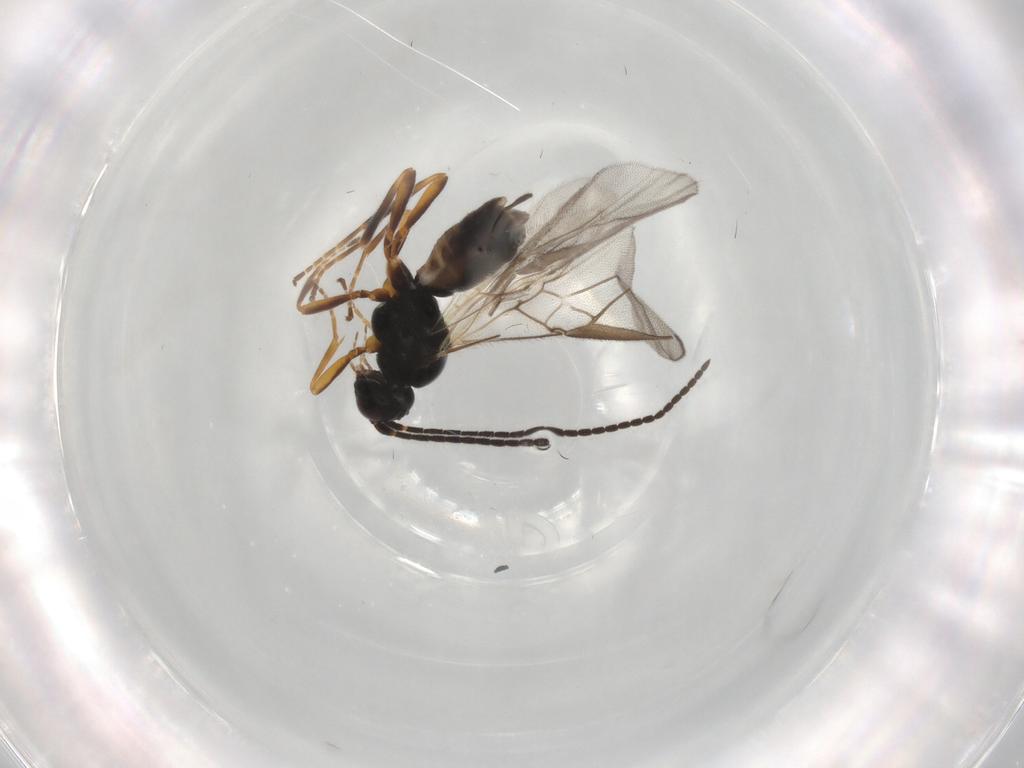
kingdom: Animalia
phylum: Arthropoda
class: Insecta
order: Hymenoptera
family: Braconidae
